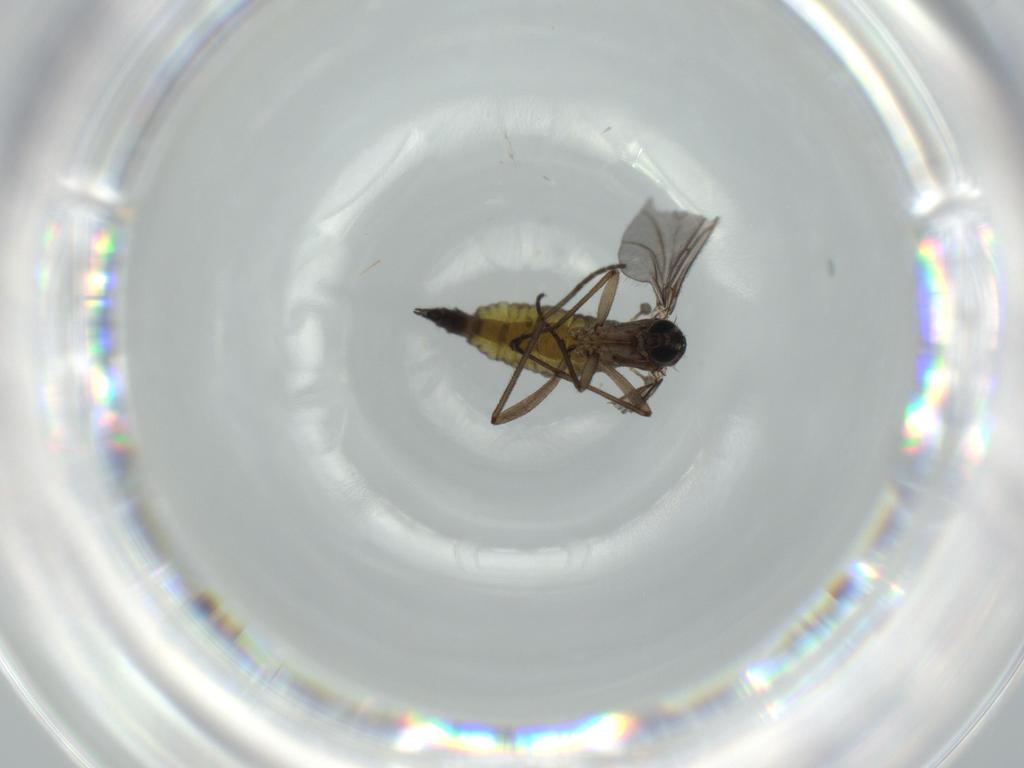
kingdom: Animalia
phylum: Arthropoda
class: Insecta
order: Diptera
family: Sciaridae
